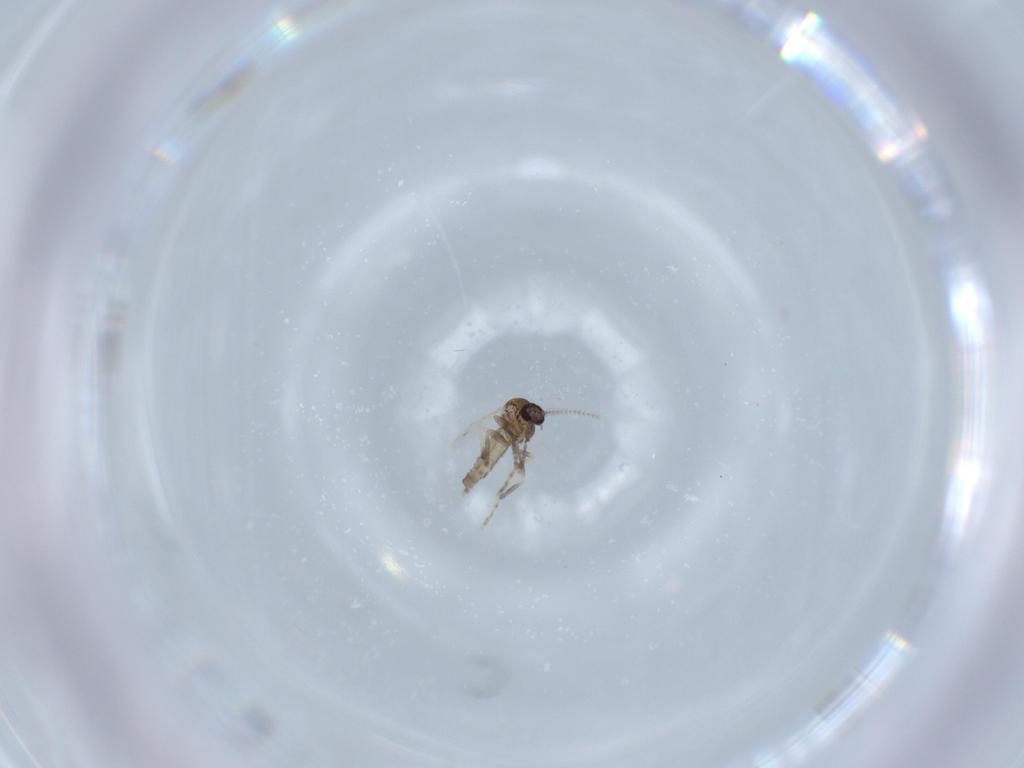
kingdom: Animalia
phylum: Arthropoda
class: Insecta
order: Diptera
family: Ceratopogonidae
